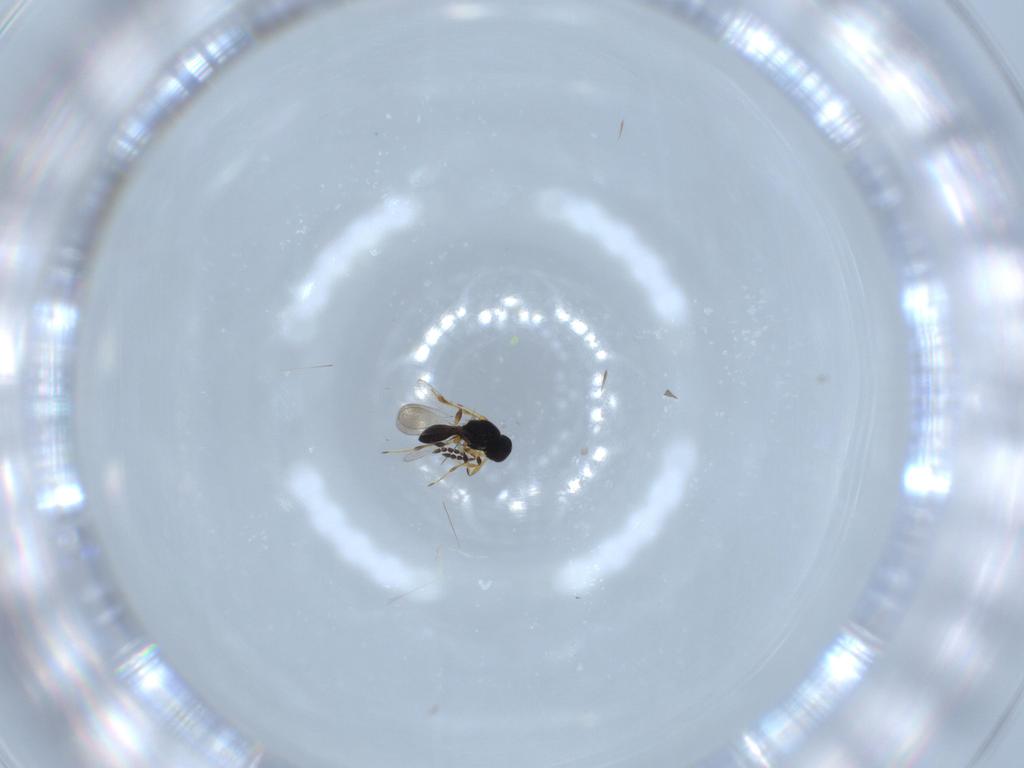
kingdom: Animalia
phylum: Arthropoda
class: Insecta
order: Hymenoptera
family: Platygastridae
